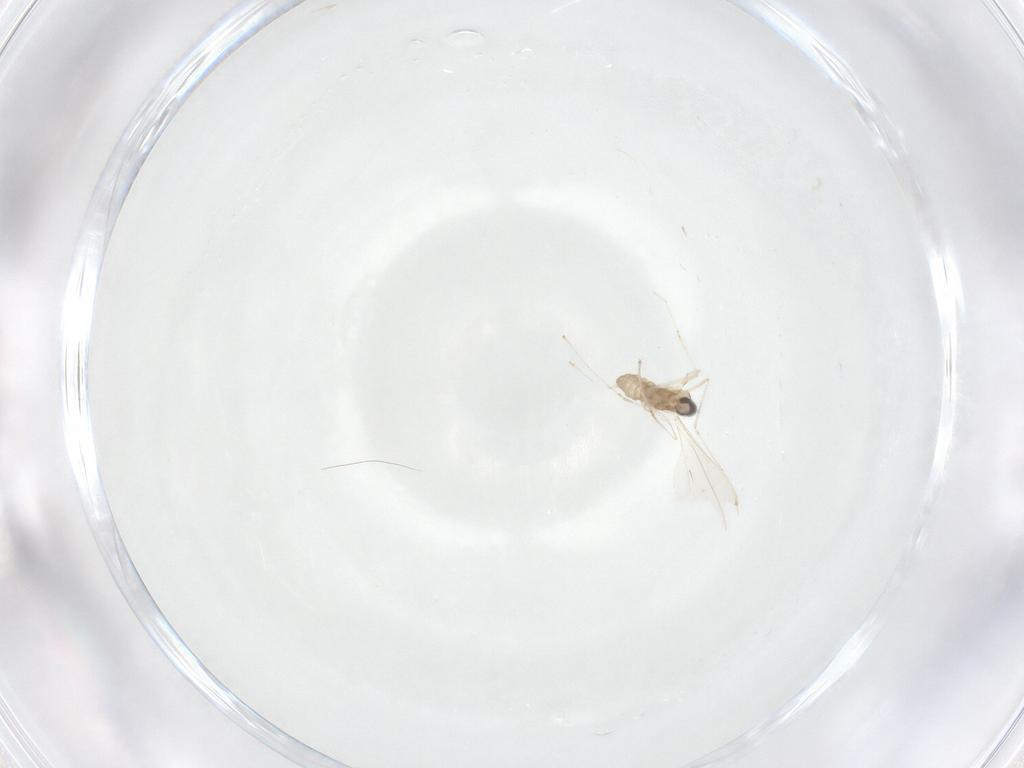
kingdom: Animalia
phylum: Arthropoda
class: Insecta
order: Diptera
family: Cecidomyiidae
